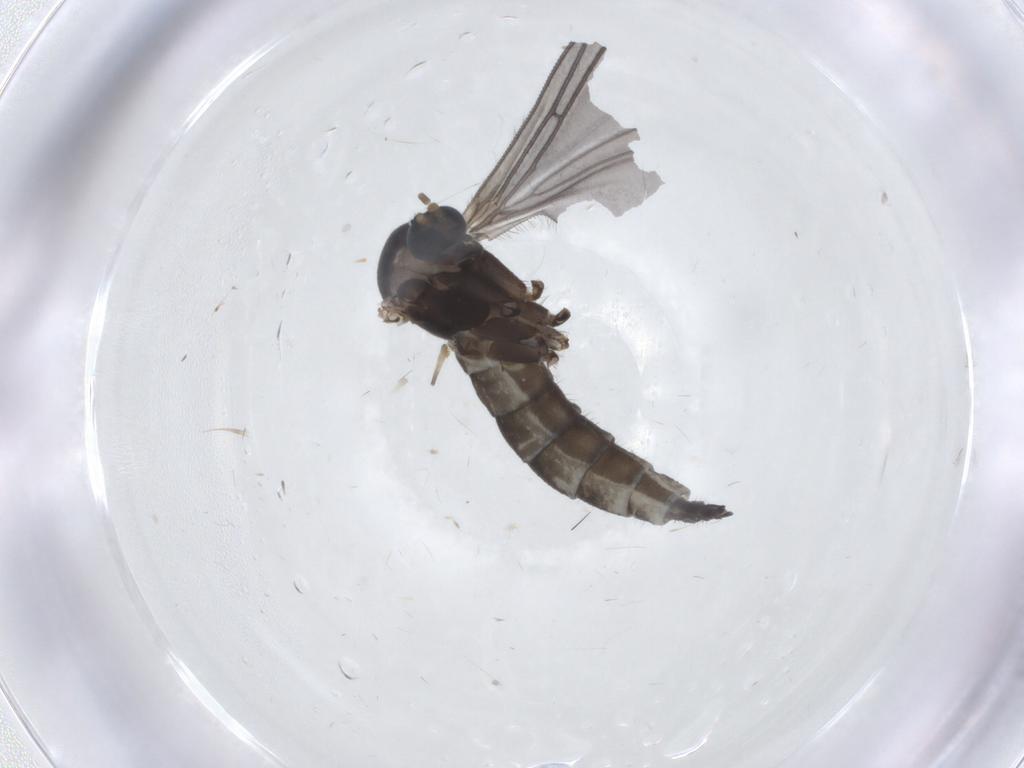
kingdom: Animalia
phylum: Arthropoda
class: Insecta
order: Diptera
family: Sciaridae
